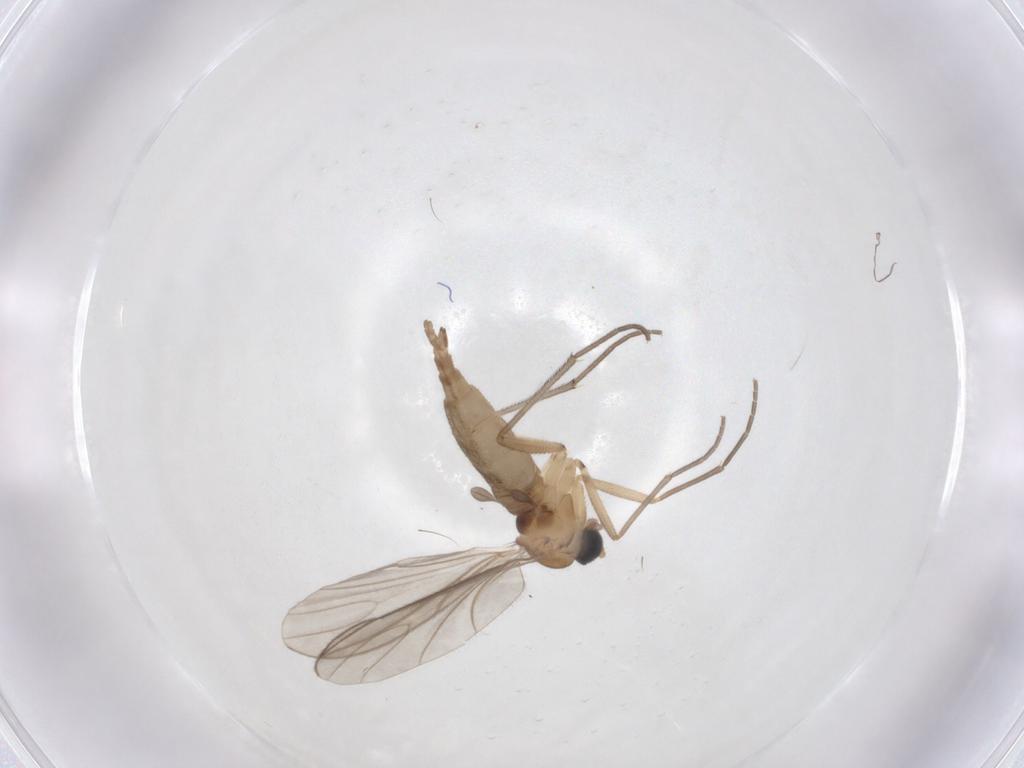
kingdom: Animalia
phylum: Arthropoda
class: Insecta
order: Diptera
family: Sciaridae
